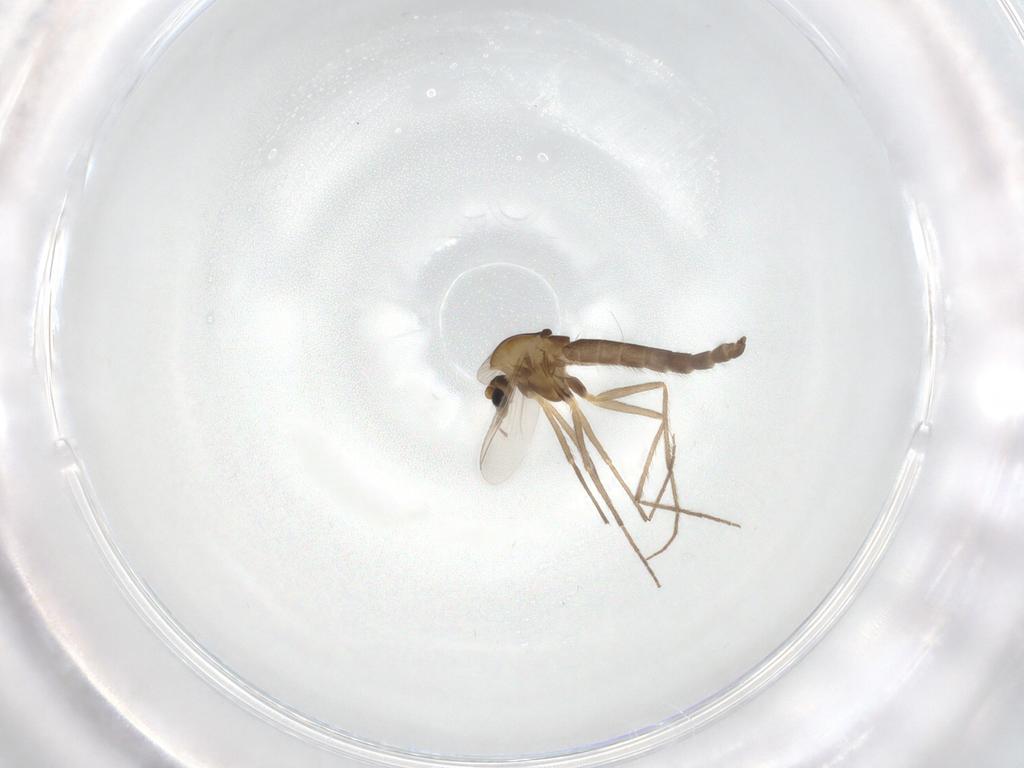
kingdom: Animalia
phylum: Arthropoda
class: Insecta
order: Diptera
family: Chironomidae
